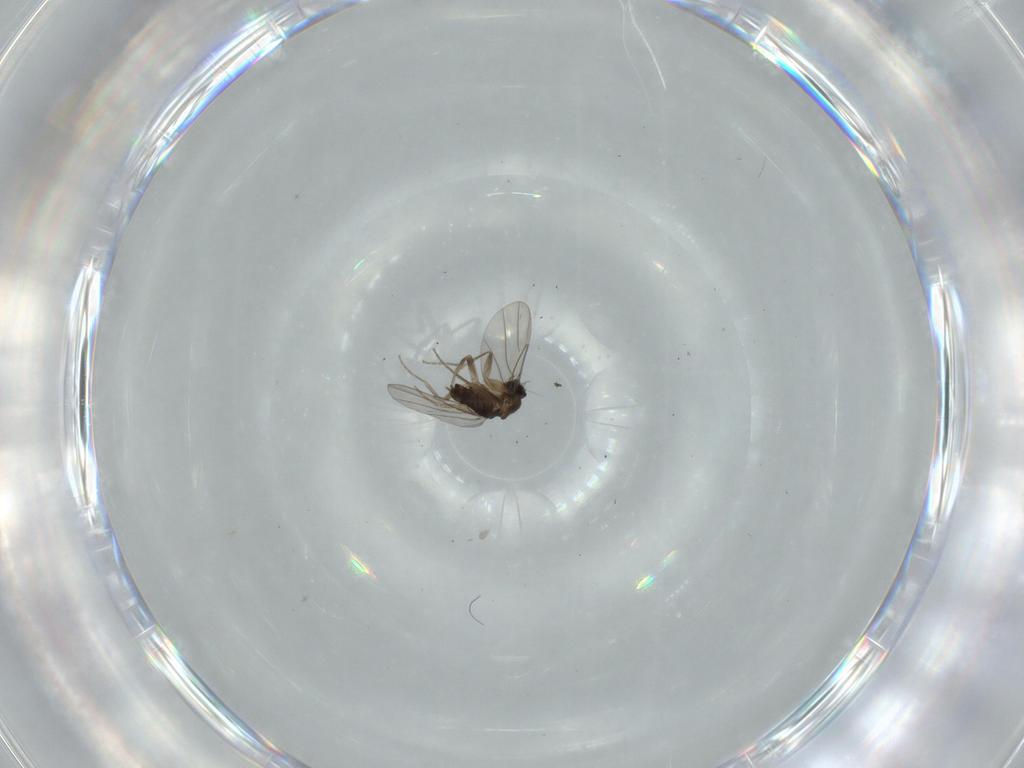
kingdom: Animalia
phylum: Arthropoda
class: Insecta
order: Diptera
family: Phoridae
